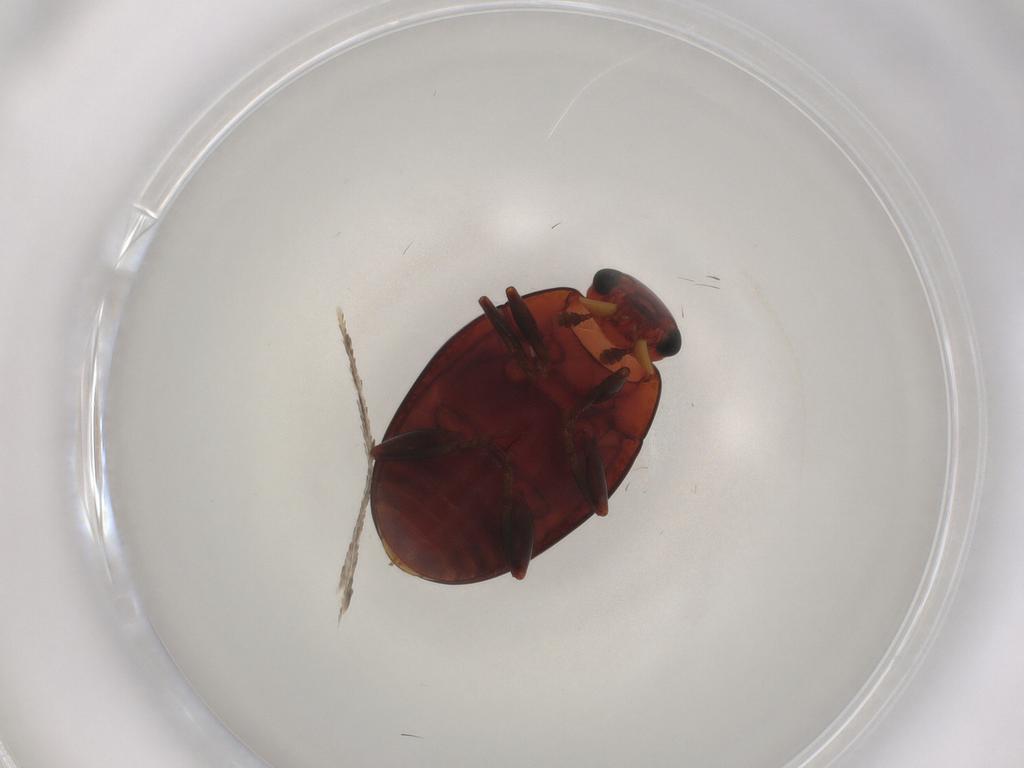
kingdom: Animalia
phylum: Arthropoda
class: Insecta
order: Coleoptera
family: Erotylidae
